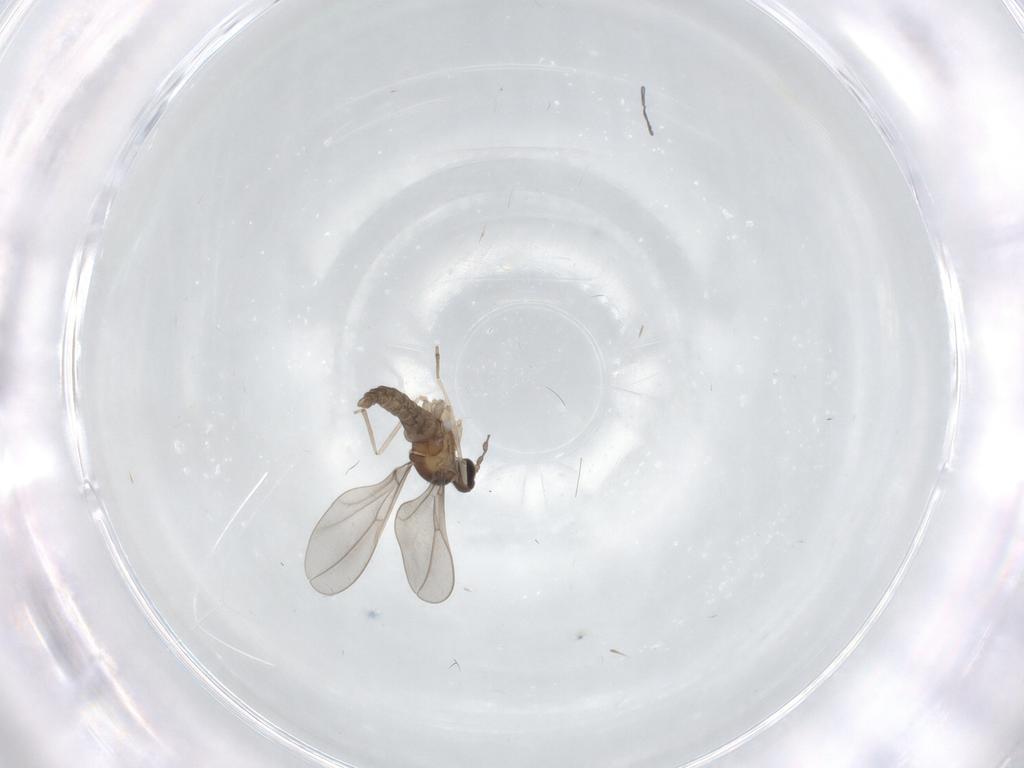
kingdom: Animalia
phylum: Arthropoda
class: Insecta
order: Diptera
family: Cecidomyiidae
